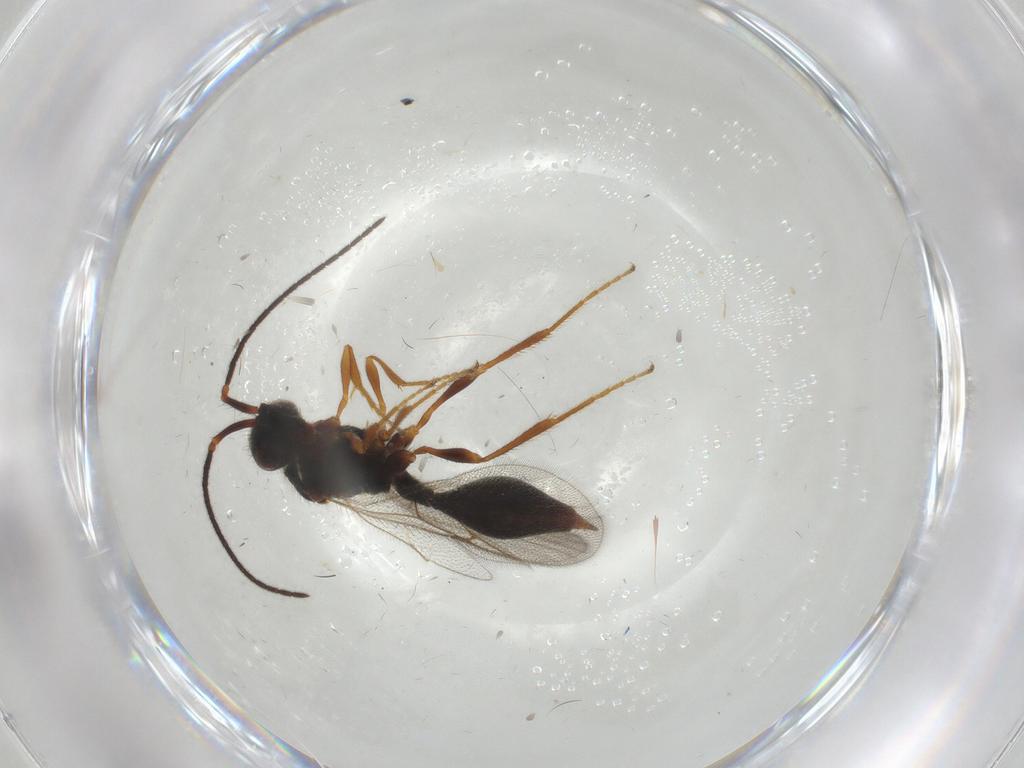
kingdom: Animalia
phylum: Arthropoda
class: Insecta
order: Hymenoptera
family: Diapriidae
